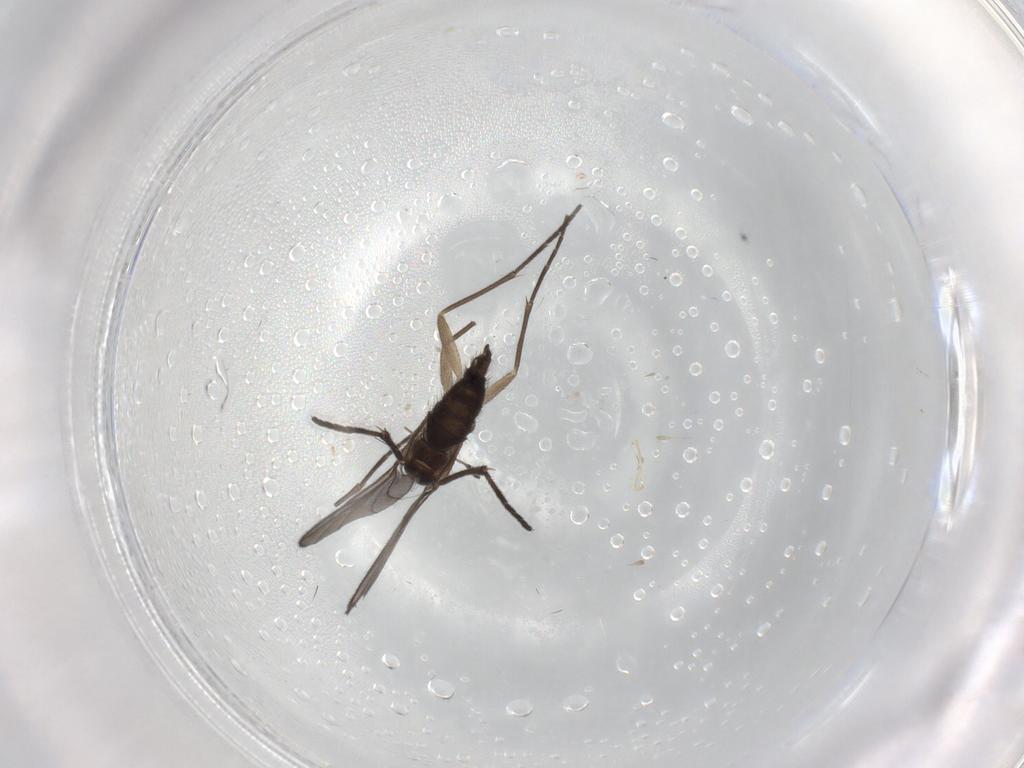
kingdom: Animalia
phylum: Arthropoda
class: Insecta
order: Diptera
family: Sciaridae
